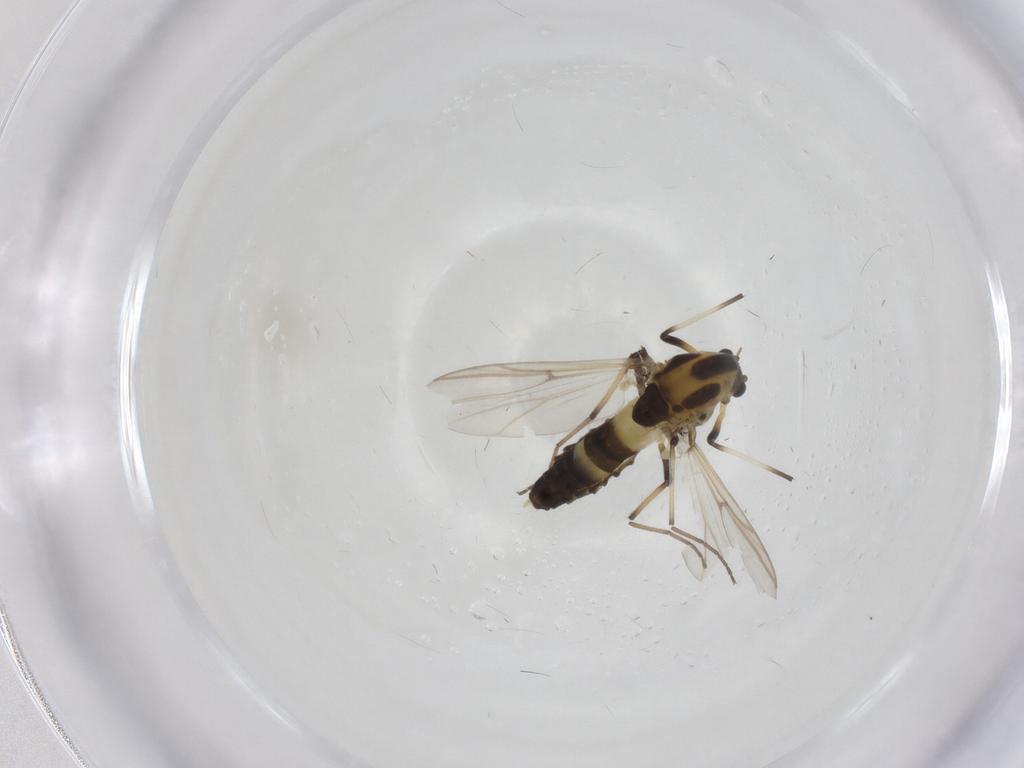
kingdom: Animalia
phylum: Arthropoda
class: Insecta
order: Diptera
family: Chironomidae
